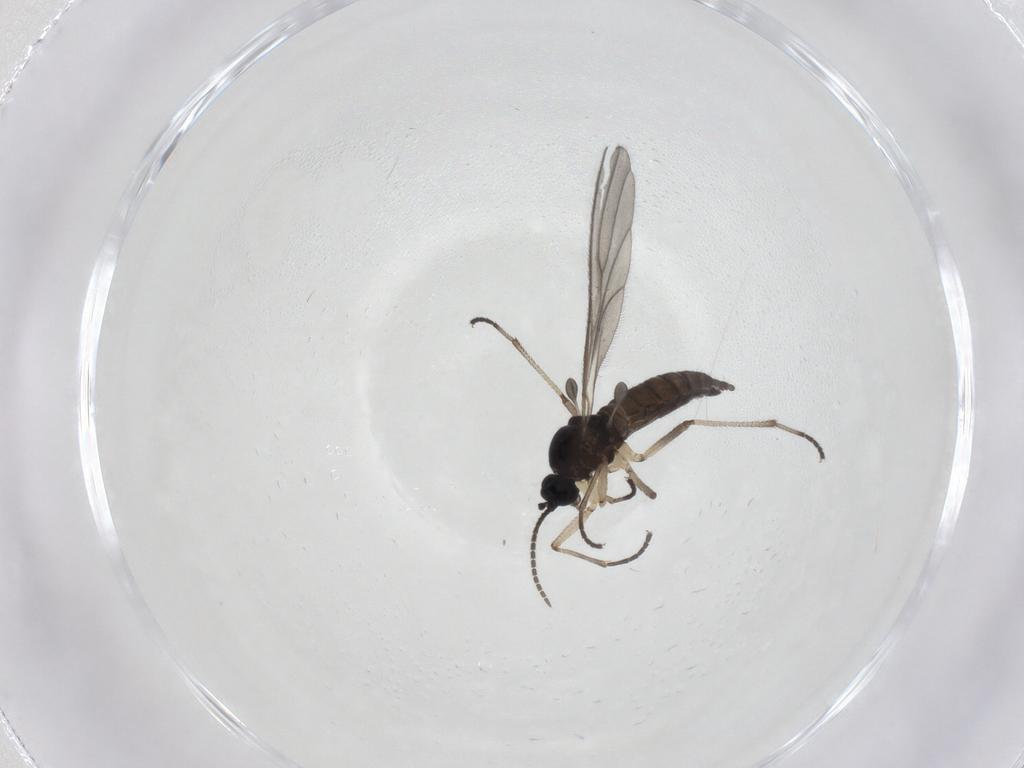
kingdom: Animalia
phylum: Arthropoda
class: Insecta
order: Diptera
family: Sciaridae
